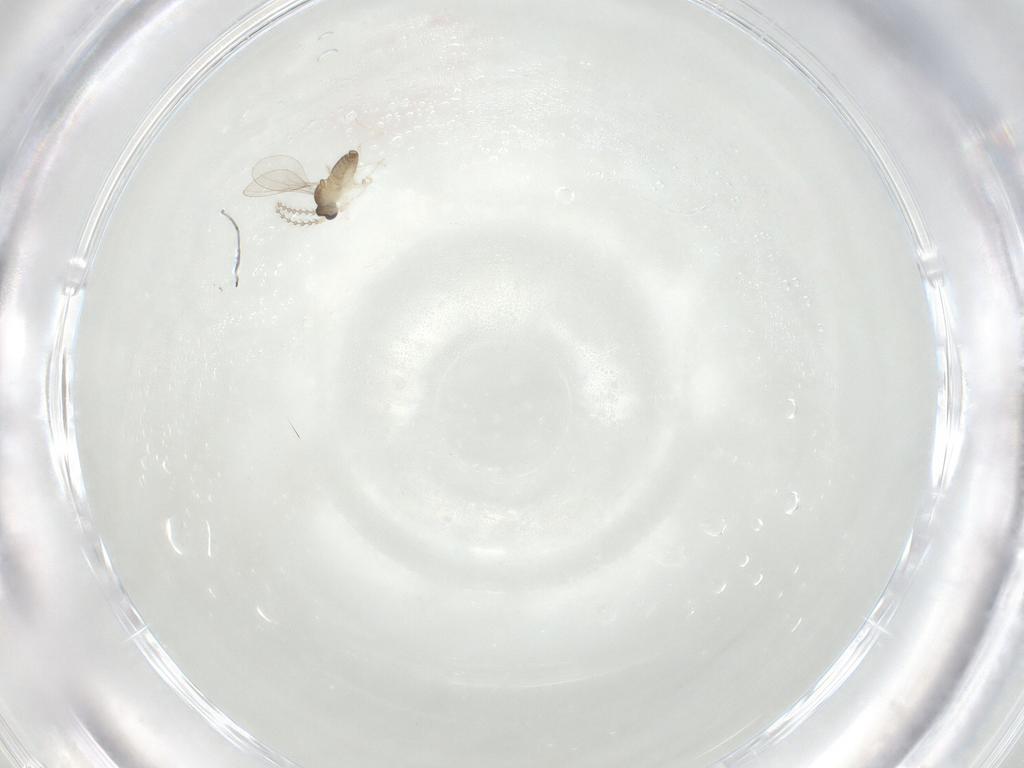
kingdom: Animalia
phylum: Arthropoda
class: Insecta
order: Diptera
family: Cecidomyiidae
